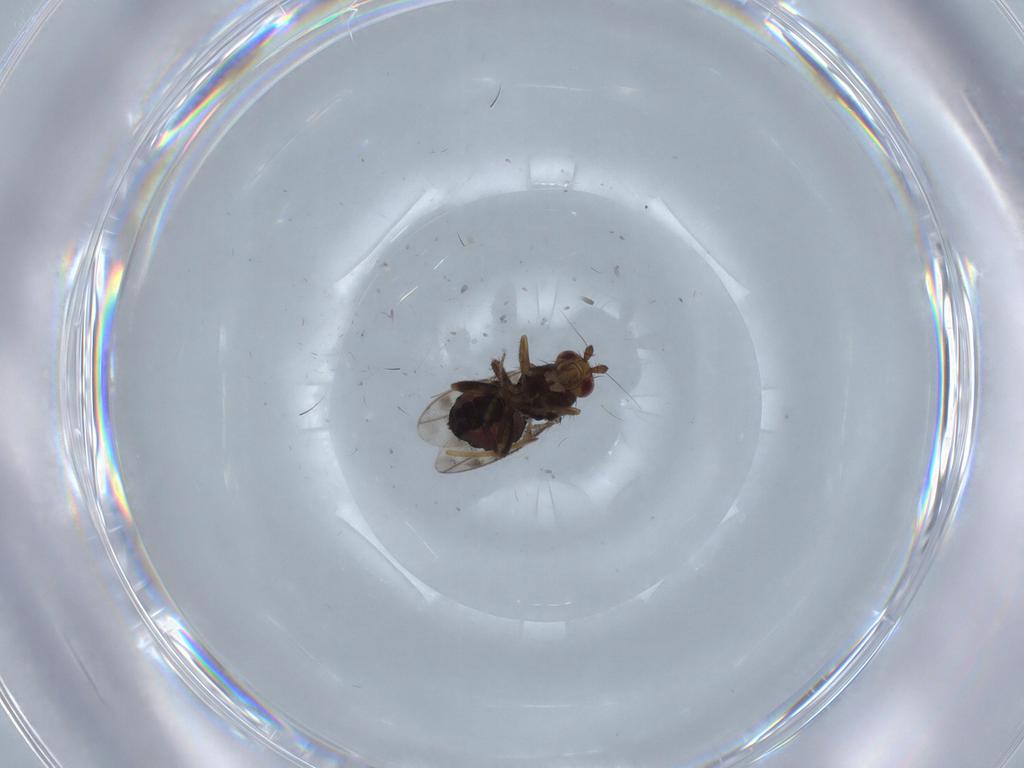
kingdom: Animalia
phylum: Arthropoda
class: Insecta
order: Diptera
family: Sphaeroceridae
